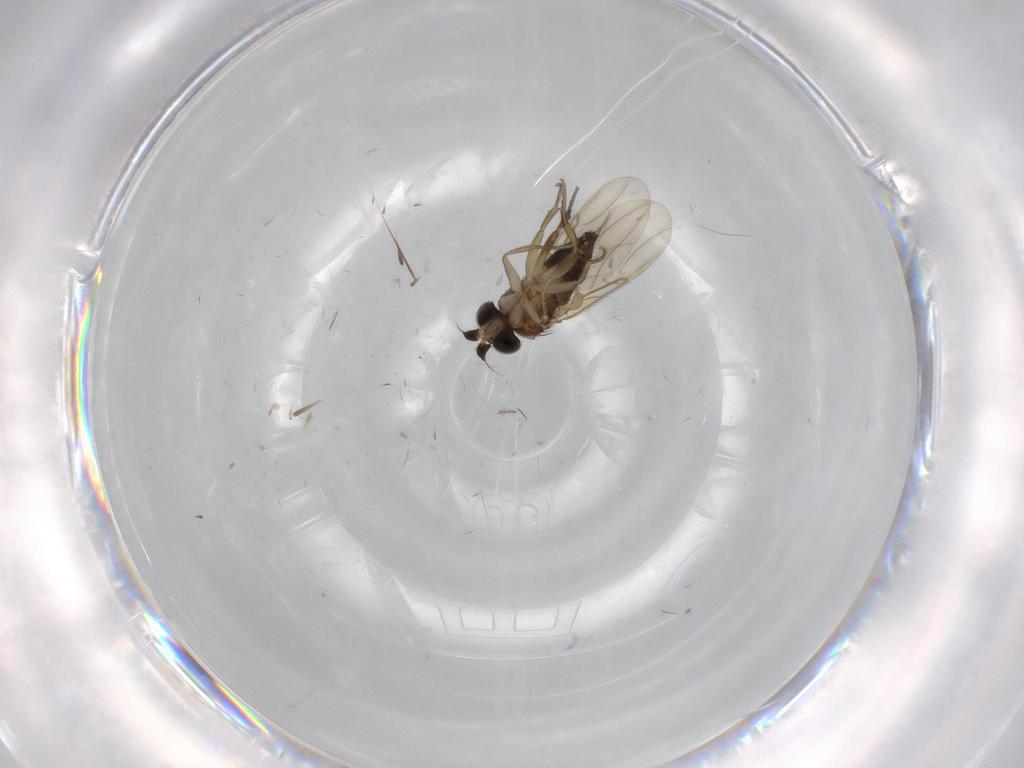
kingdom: Animalia
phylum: Arthropoda
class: Insecta
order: Diptera
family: Phoridae
